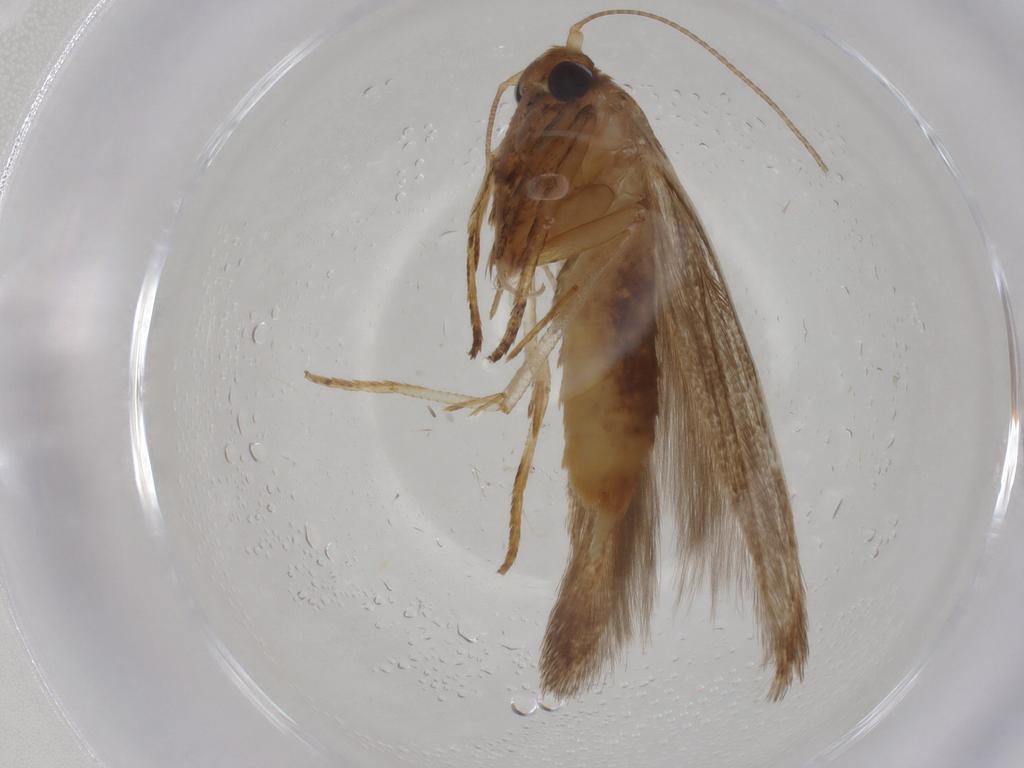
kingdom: Animalia
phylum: Arthropoda
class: Insecta
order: Lepidoptera
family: Blastobasidae
